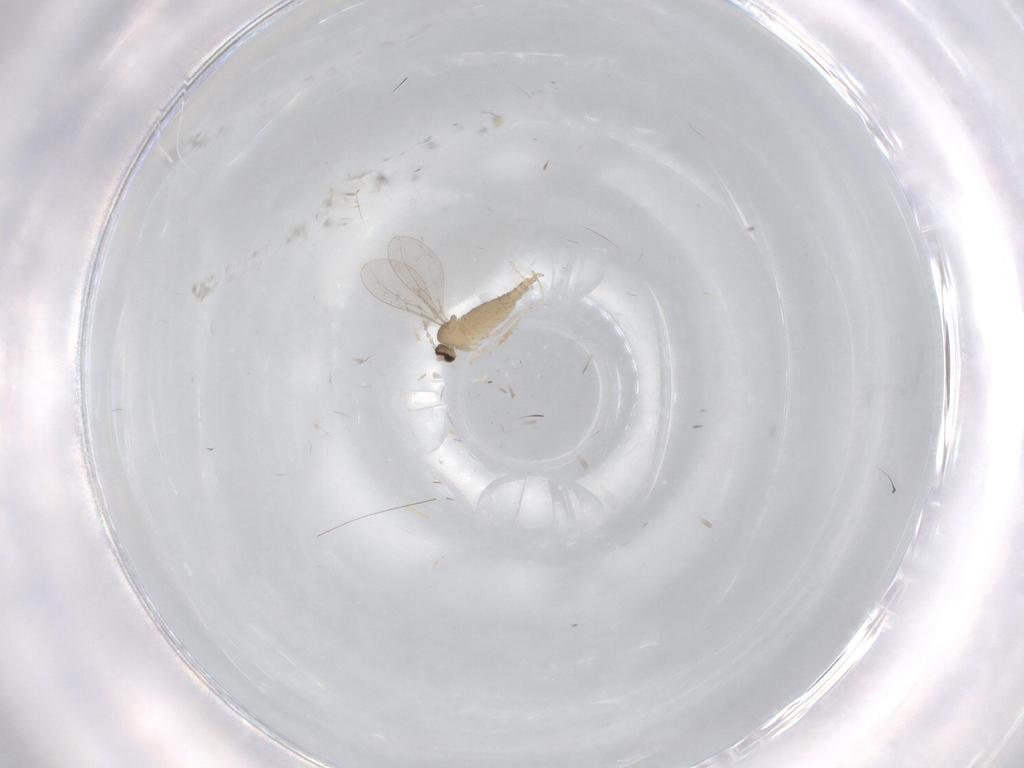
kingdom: Animalia
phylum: Arthropoda
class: Insecta
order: Diptera
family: Cecidomyiidae
